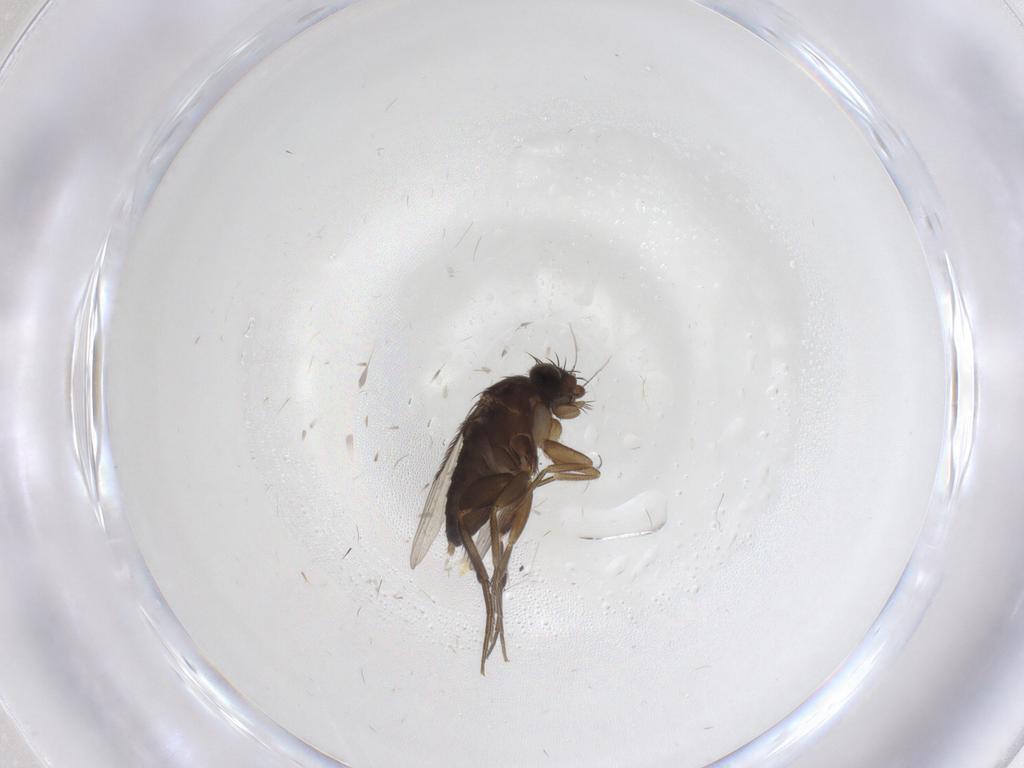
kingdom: Animalia
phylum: Arthropoda
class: Insecta
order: Diptera
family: Phoridae
